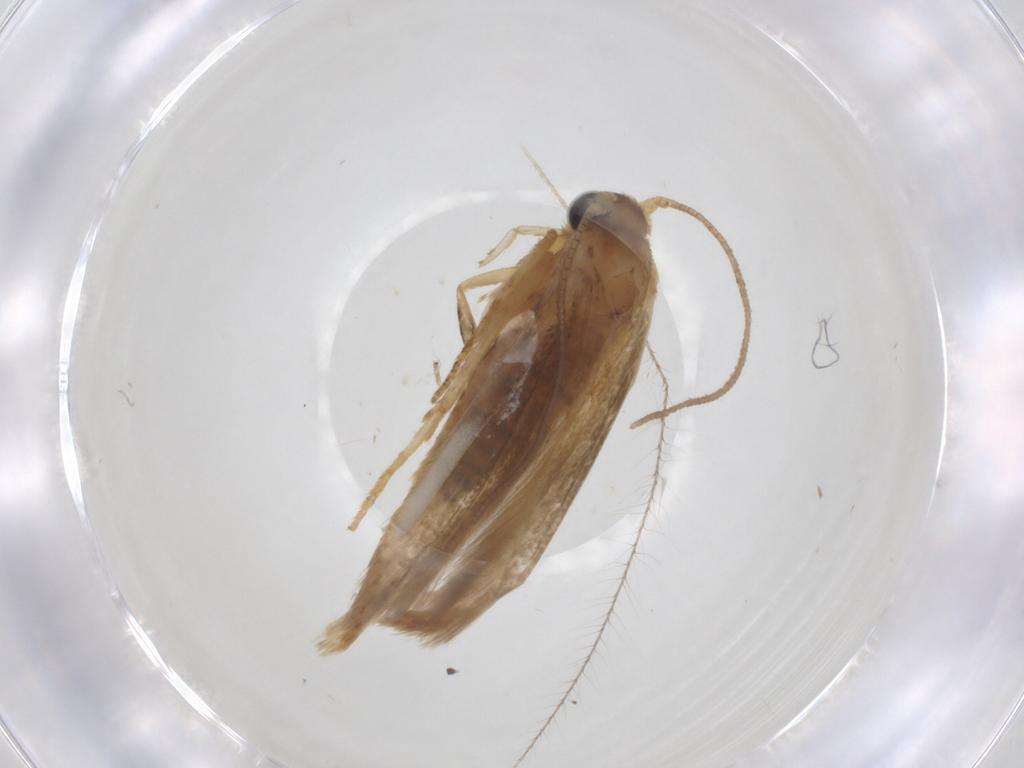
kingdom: Animalia
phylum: Arthropoda
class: Insecta
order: Lepidoptera
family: Blastobasidae
